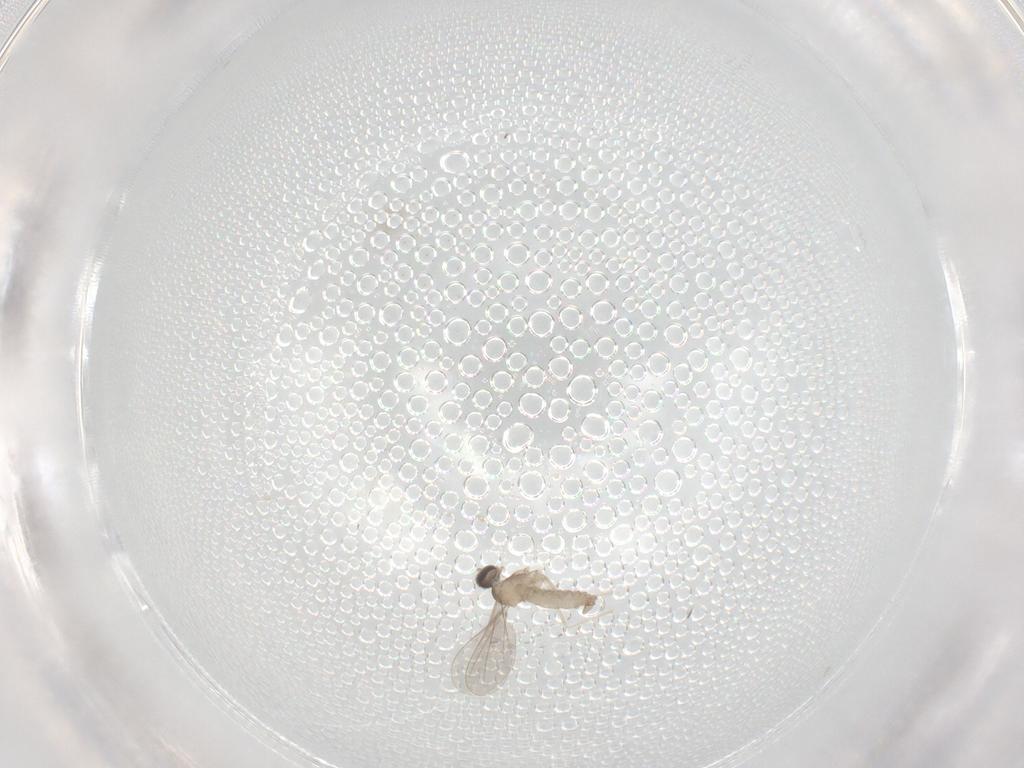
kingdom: Animalia
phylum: Arthropoda
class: Insecta
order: Diptera
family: Cecidomyiidae
